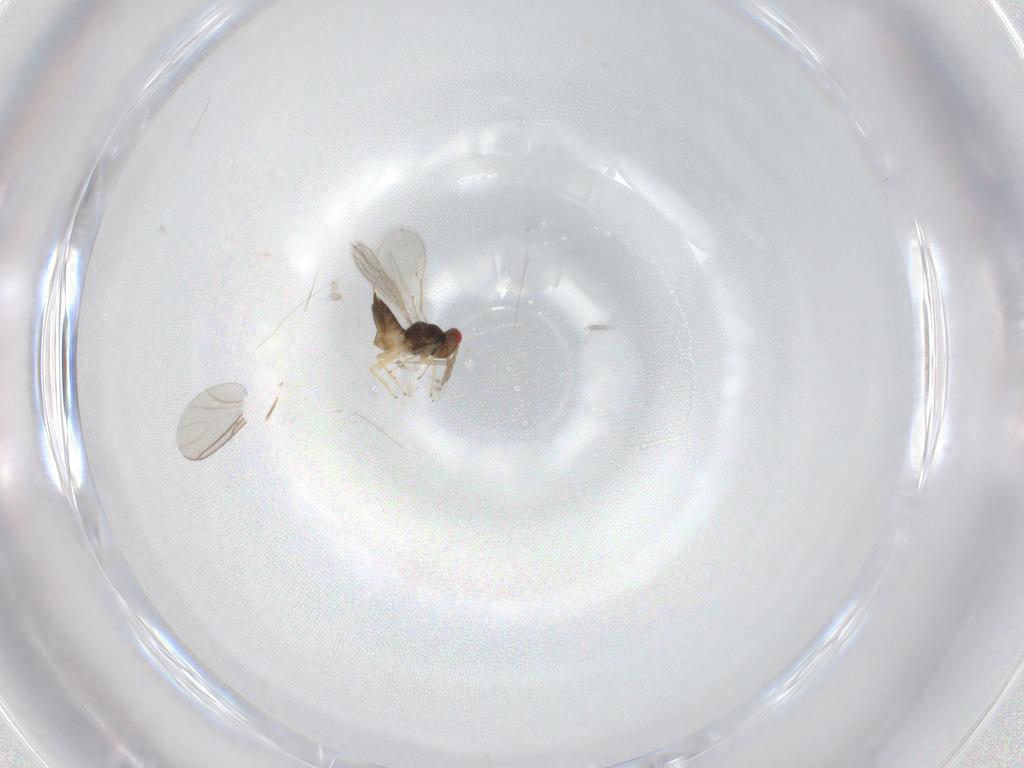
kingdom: Animalia
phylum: Arthropoda
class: Insecta
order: Hymenoptera
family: Eulophidae
